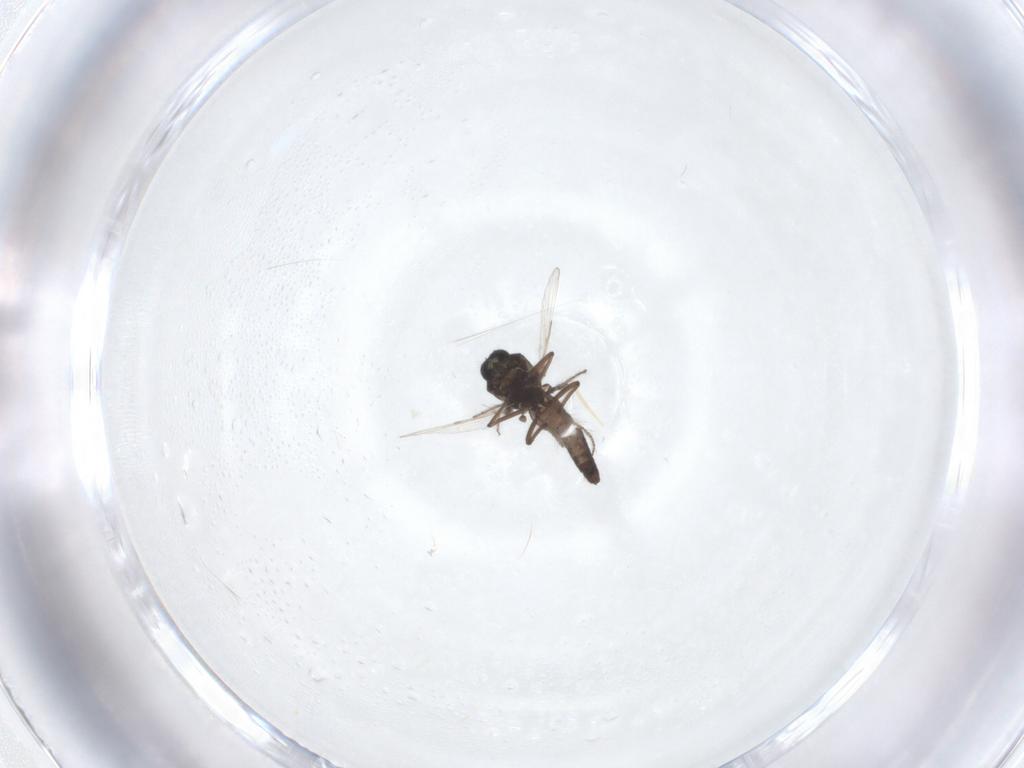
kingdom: Animalia
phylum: Arthropoda
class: Insecta
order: Diptera
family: Ceratopogonidae
